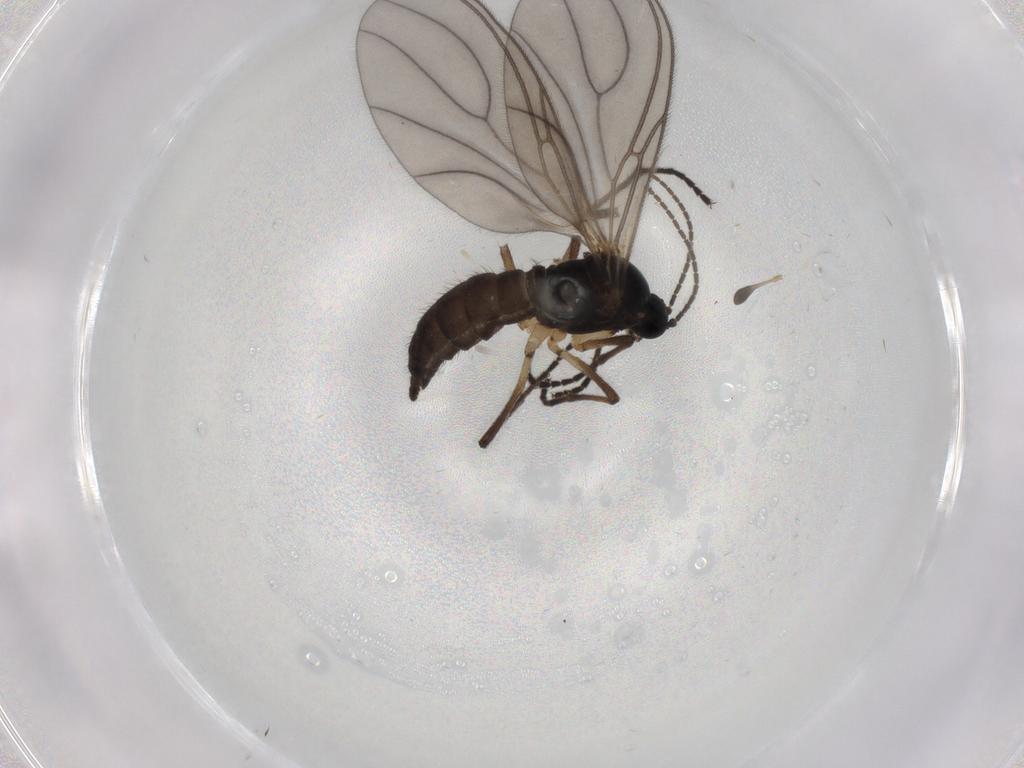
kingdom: Animalia
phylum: Arthropoda
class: Insecta
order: Diptera
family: Sciaridae
